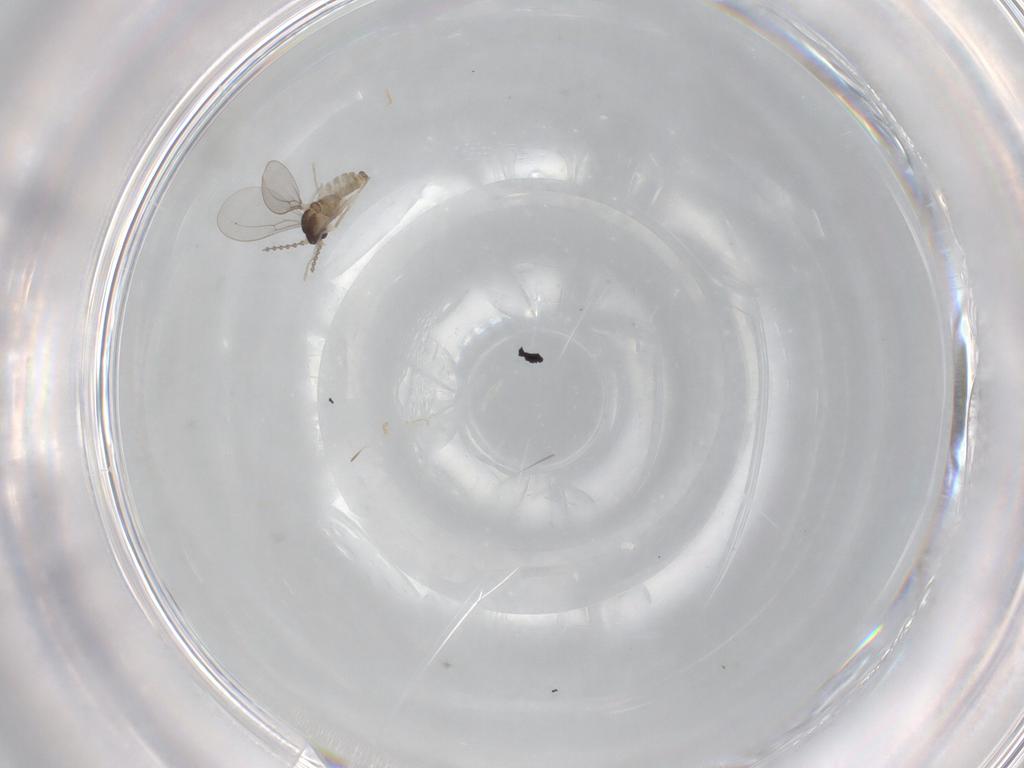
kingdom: Animalia
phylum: Arthropoda
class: Insecta
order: Diptera
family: Cecidomyiidae
